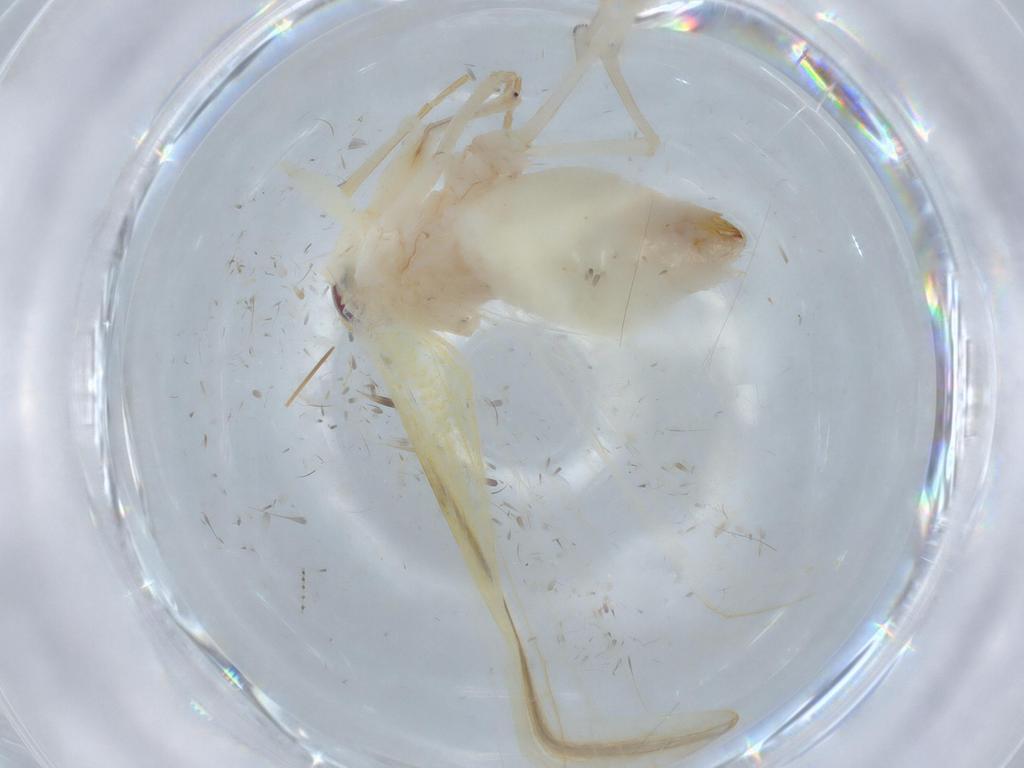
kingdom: Animalia
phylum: Arthropoda
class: Insecta
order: Hemiptera
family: Derbidae
